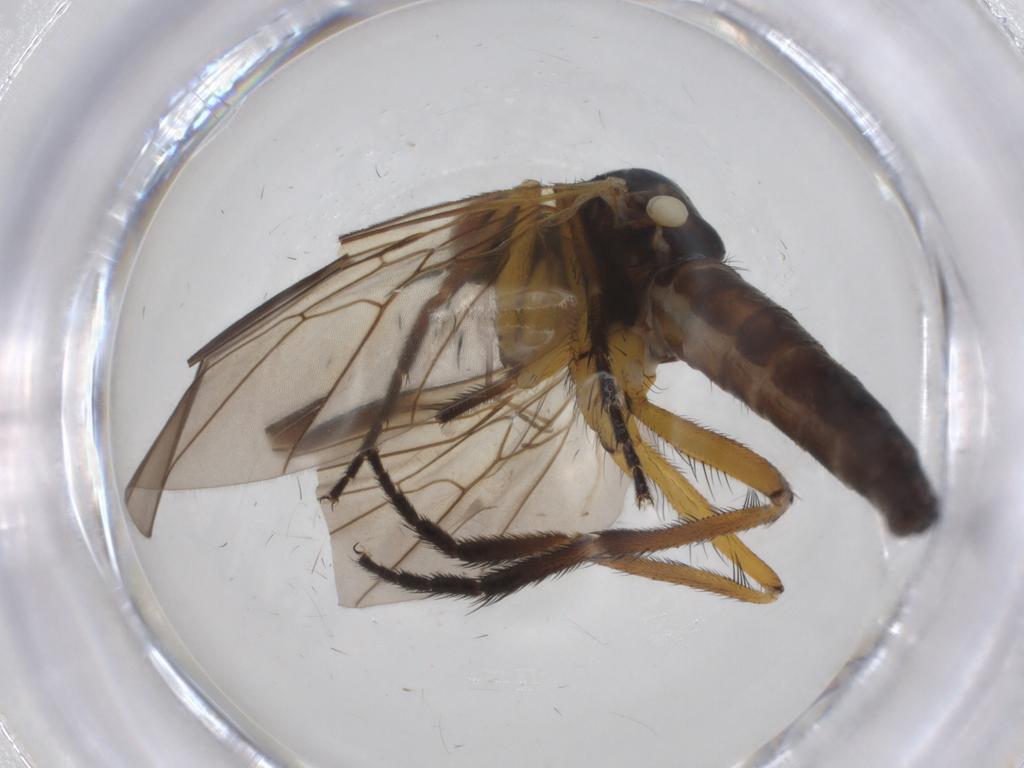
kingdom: Animalia
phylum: Arthropoda
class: Insecta
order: Diptera
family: Empididae
